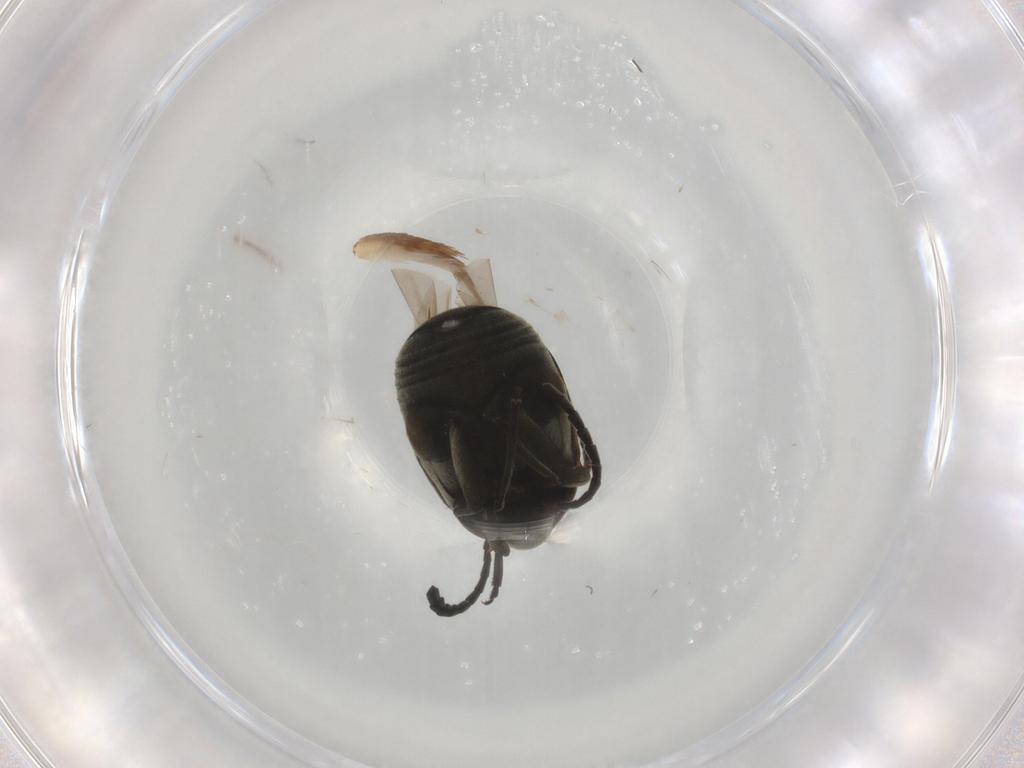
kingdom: Animalia
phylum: Arthropoda
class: Insecta
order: Coleoptera
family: Chrysomelidae
